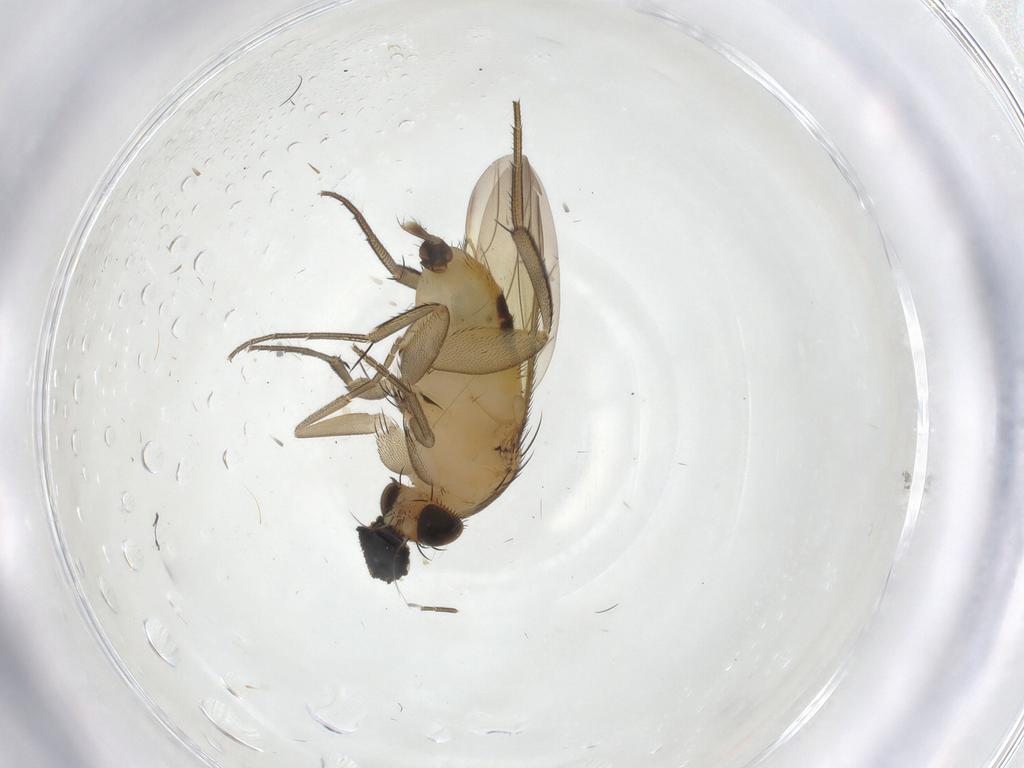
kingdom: Animalia
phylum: Arthropoda
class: Insecta
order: Diptera
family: Phoridae
